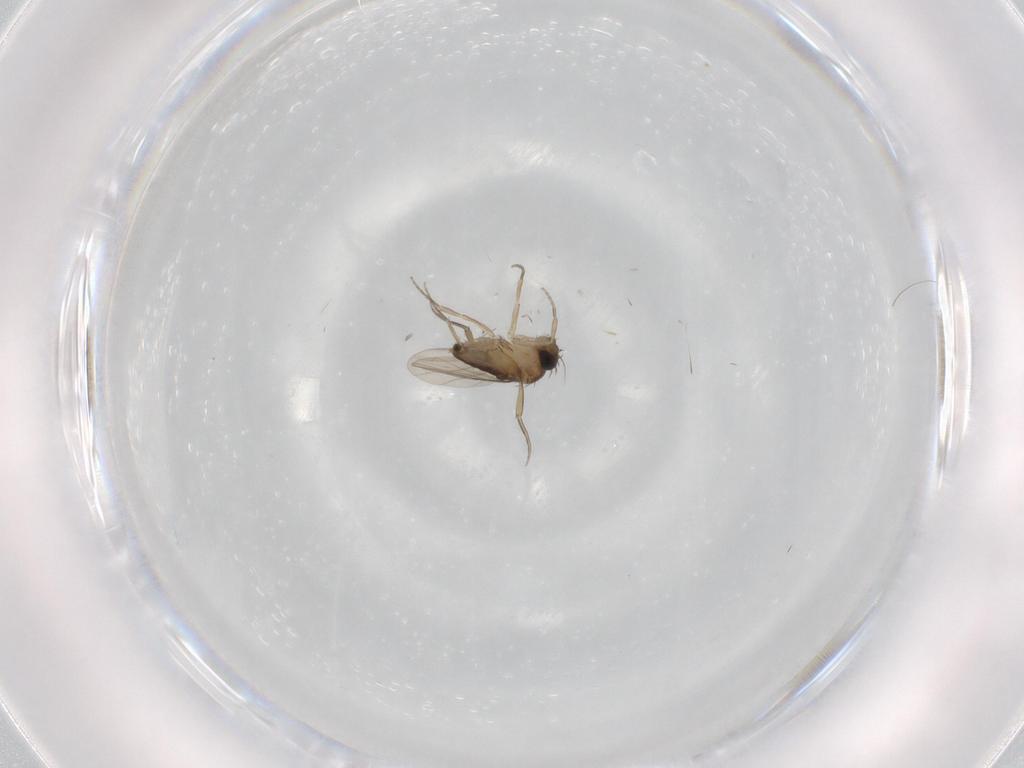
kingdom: Animalia
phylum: Arthropoda
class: Insecta
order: Diptera
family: Phoridae
